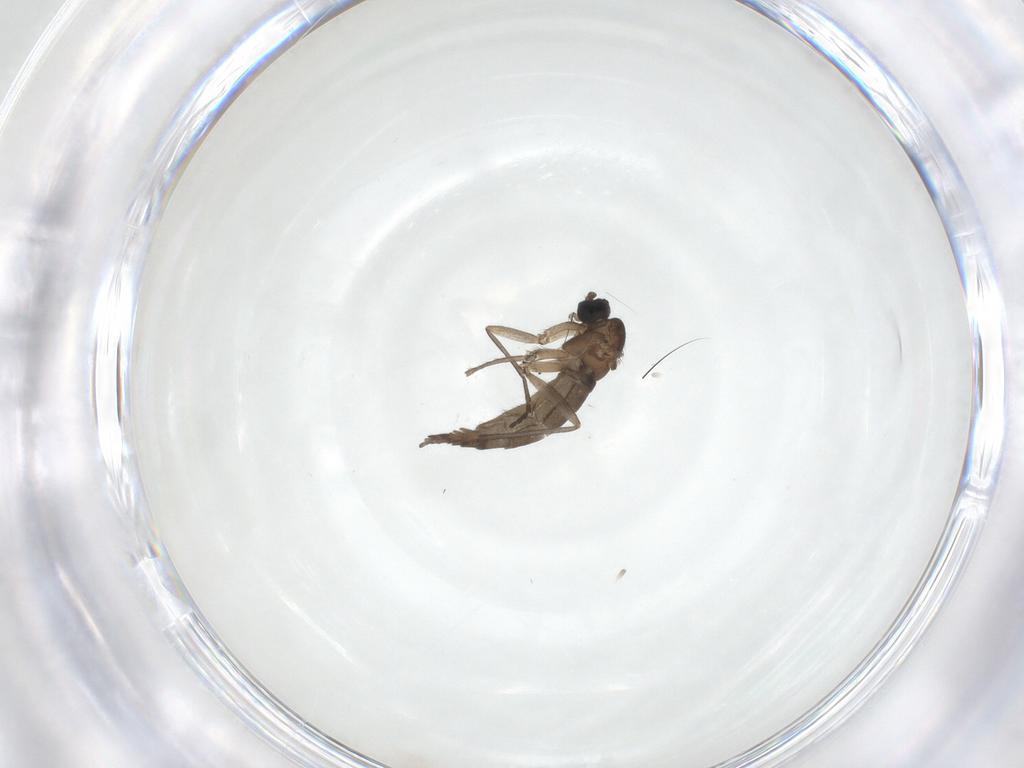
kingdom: Animalia
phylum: Arthropoda
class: Insecta
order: Diptera
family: Sciaridae
